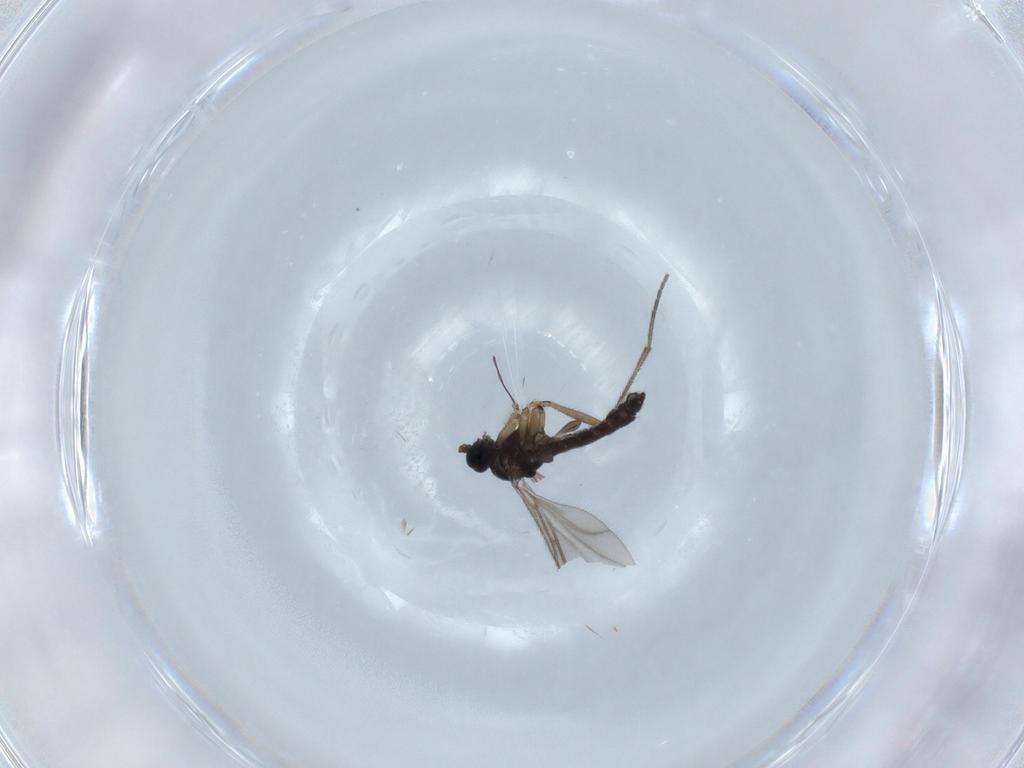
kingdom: Animalia
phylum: Arthropoda
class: Insecta
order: Diptera
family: Sciaridae
